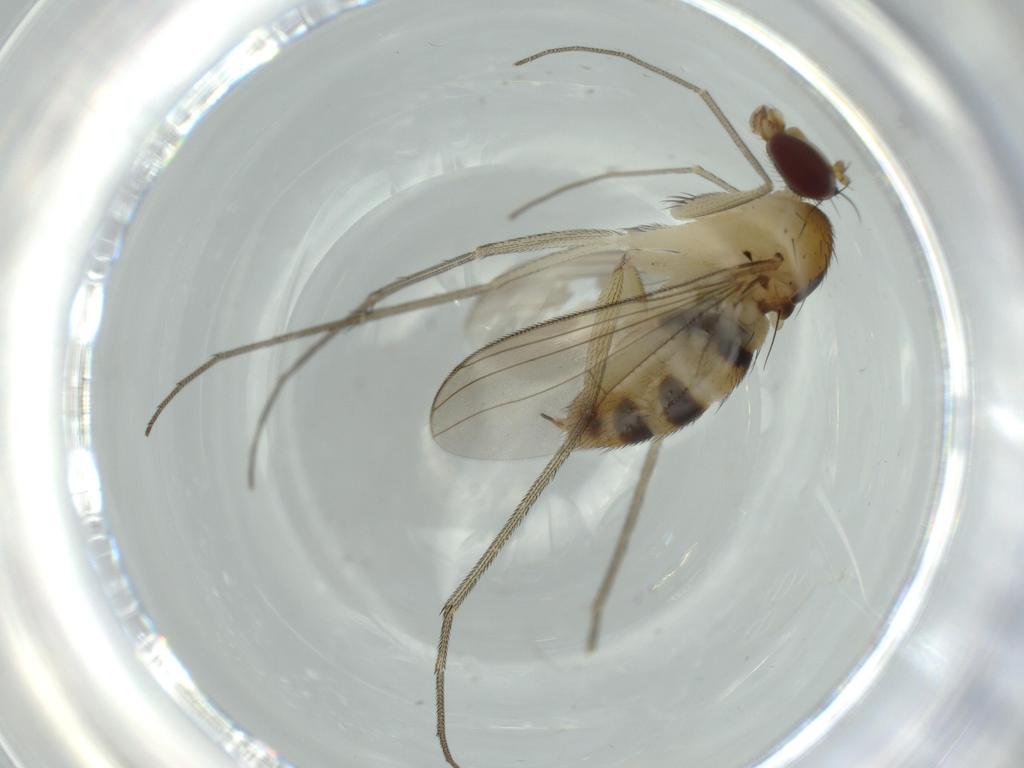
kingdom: Animalia
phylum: Arthropoda
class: Insecta
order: Diptera
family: Dolichopodidae
